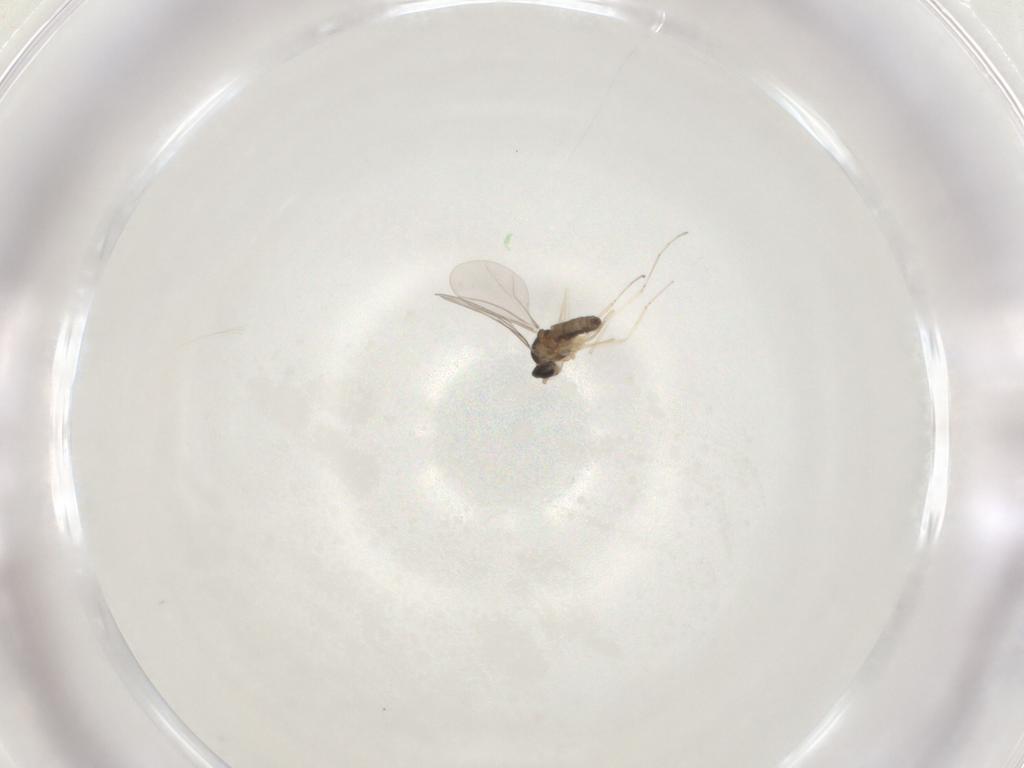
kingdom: Animalia
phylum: Arthropoda
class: Insecta
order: Diptera
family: Cecidomyiidae
